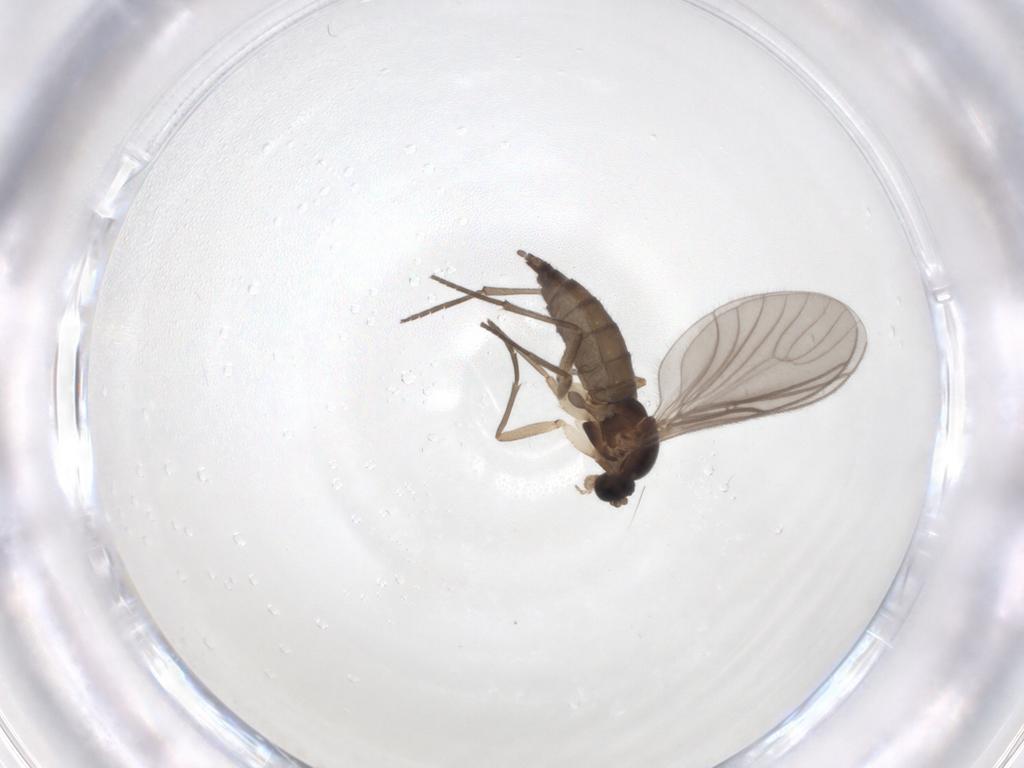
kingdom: Animalia
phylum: Arthropoda
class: Insecta
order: Diptera
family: Sciaridae
